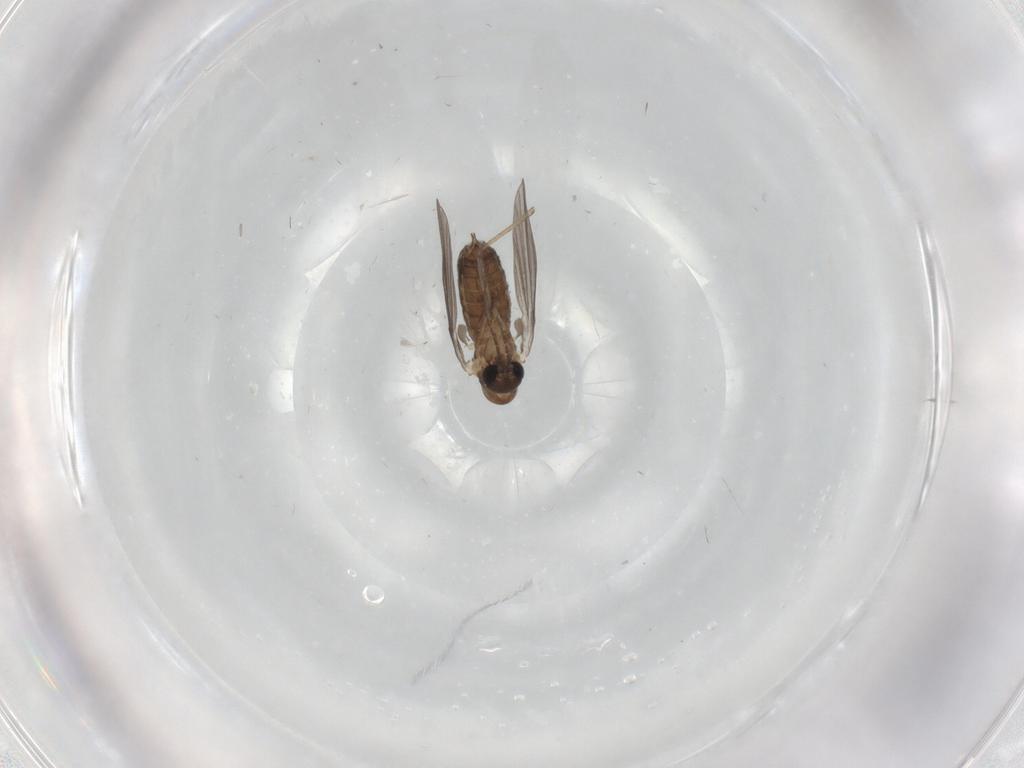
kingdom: Animalia
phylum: Arthropoda
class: Insecta
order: Diptera
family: Cecidomyiidae
